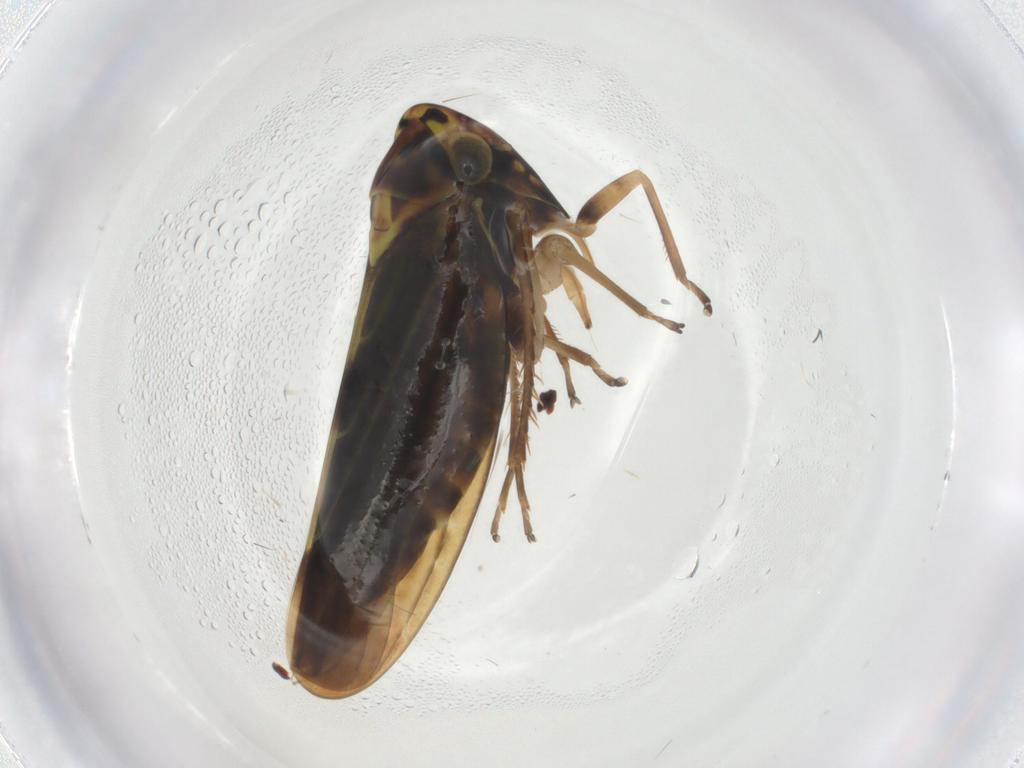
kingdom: Animalia
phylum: Arthropoda
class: Insecta
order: Hemiptera
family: Cicadellidae
